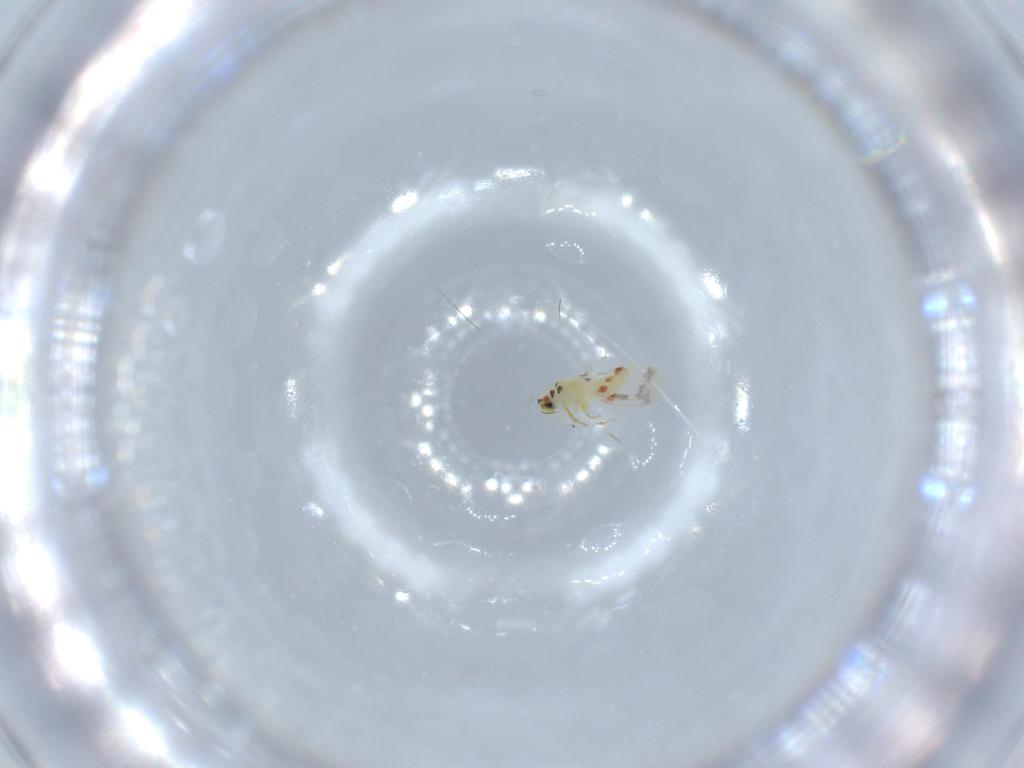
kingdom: Animalia
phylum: Arthropoda
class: Insecta
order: Hemiptera
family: Aleyrodidae
